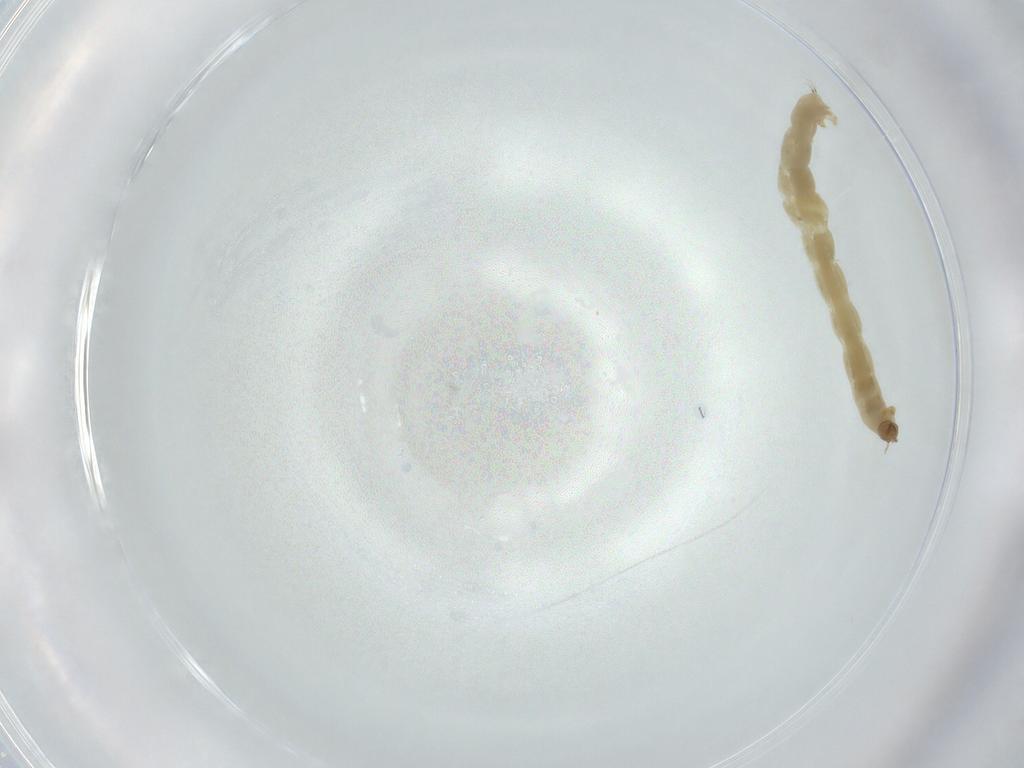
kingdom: Animalia
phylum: Arthropoda
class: Insecta
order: Diptera
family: Chironomidae
